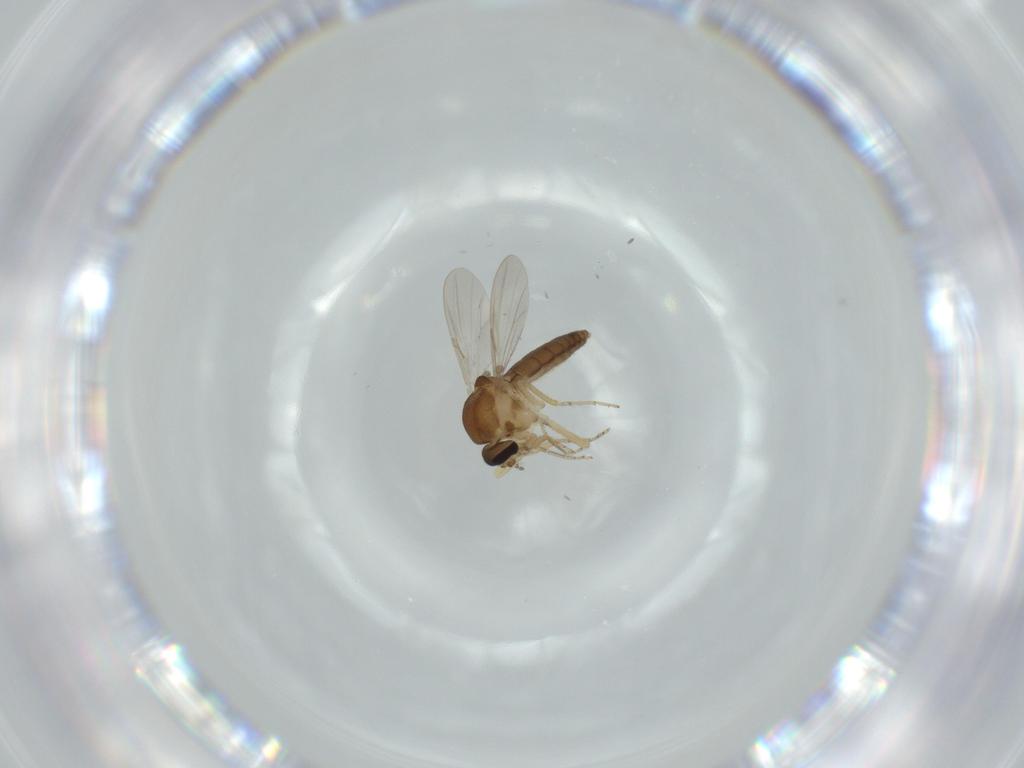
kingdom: Animalia
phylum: Arthropoda
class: Insecta
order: Diptera
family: Ceratopogonidae
